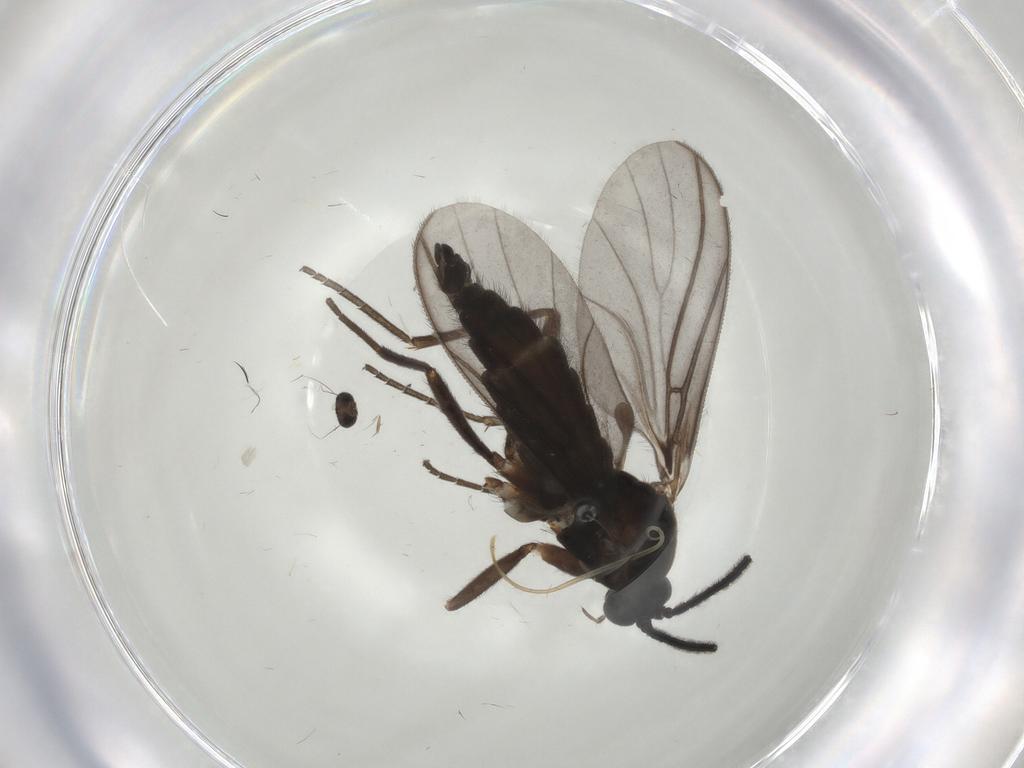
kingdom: Animalia
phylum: Arthropoda
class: Insecta
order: Diptera
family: Sciaridae
